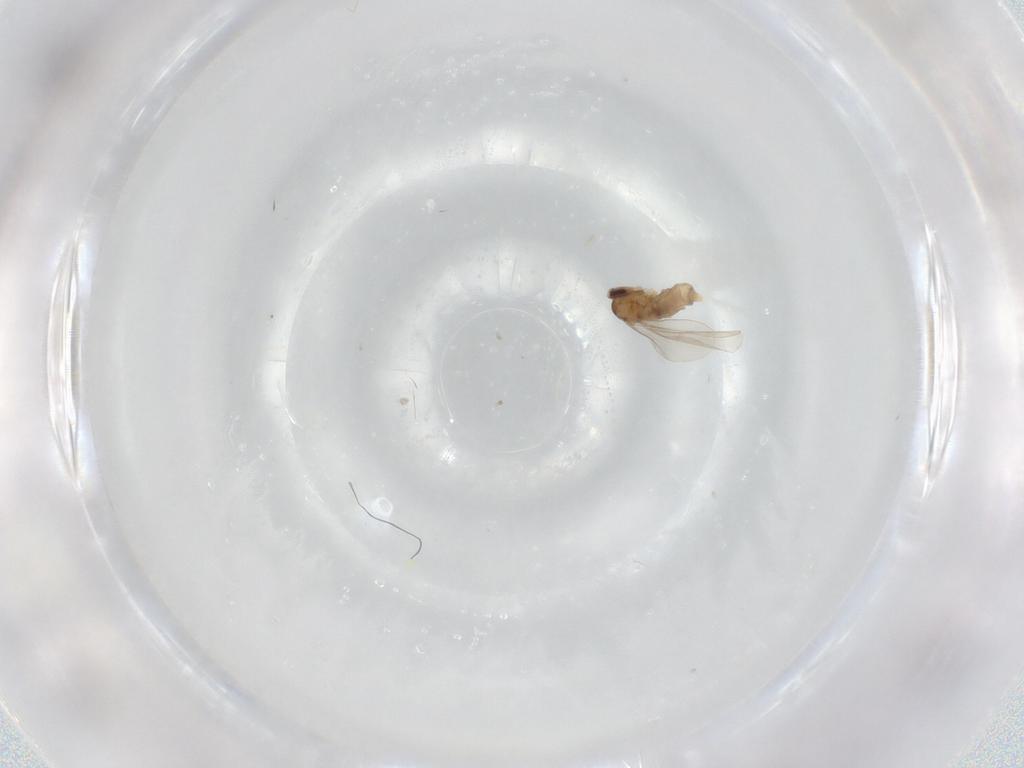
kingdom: Animalia
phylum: Arthropoda
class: Insecta
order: Diptera
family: Cecidomyiidae
